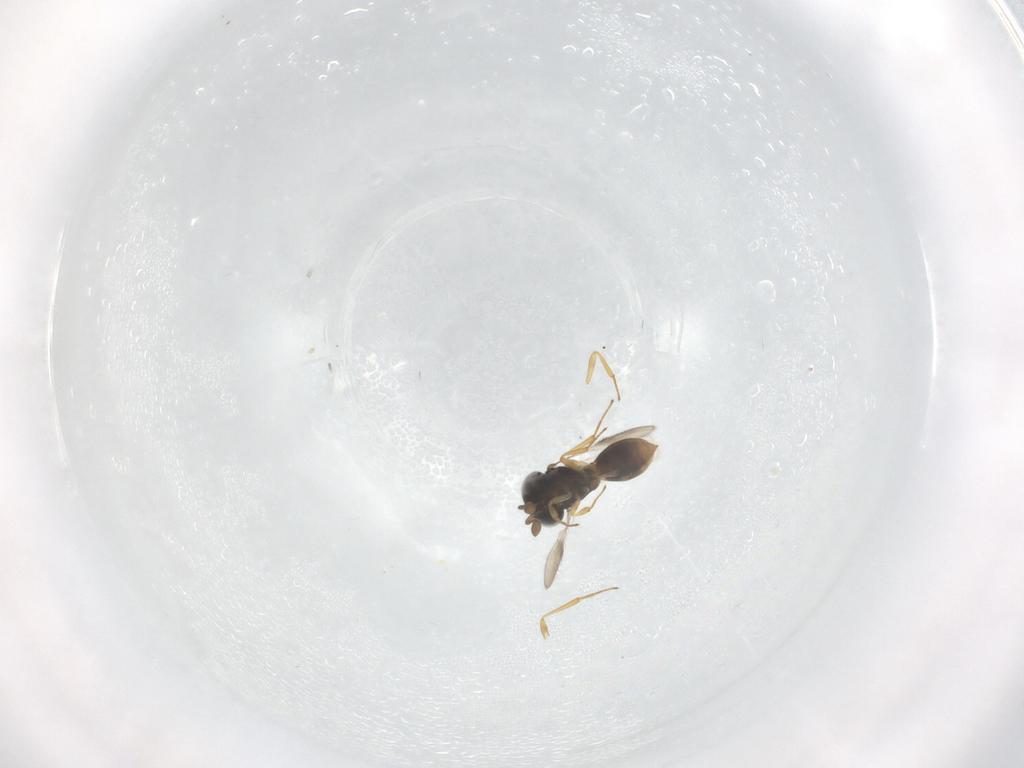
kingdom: Animalia
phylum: Arthropoda
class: Insecta
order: Hymenoptera
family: Scelionidae
